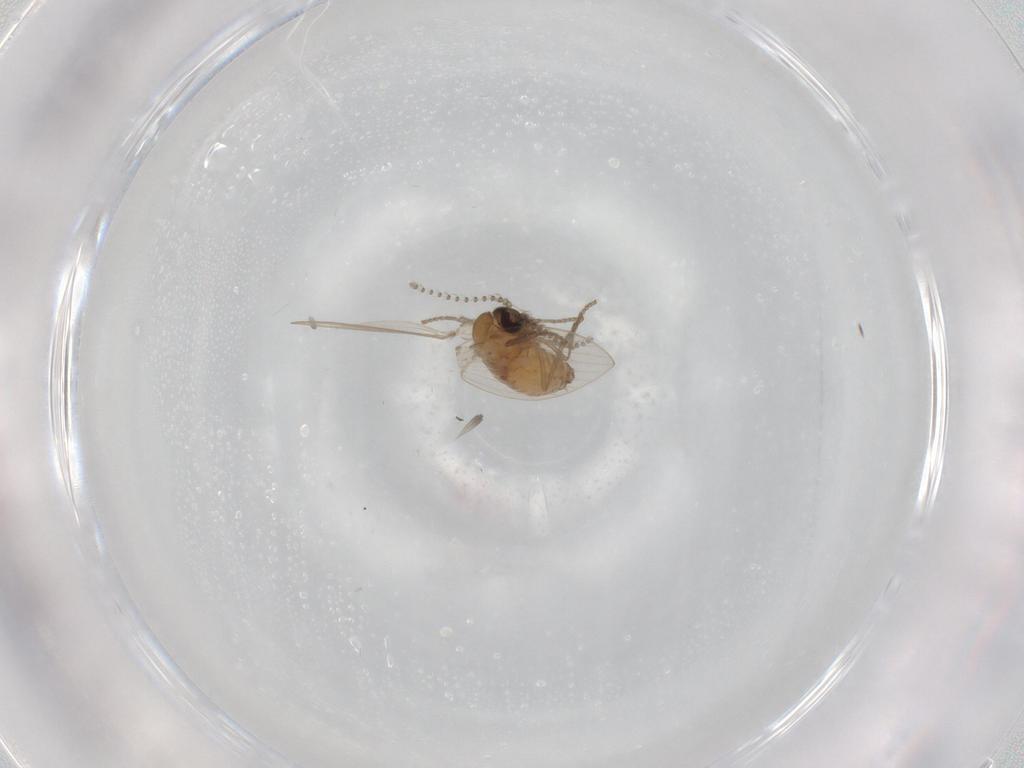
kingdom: Animalia
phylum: Arthropoda
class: Insecta
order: Diptera
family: Psychodidae
